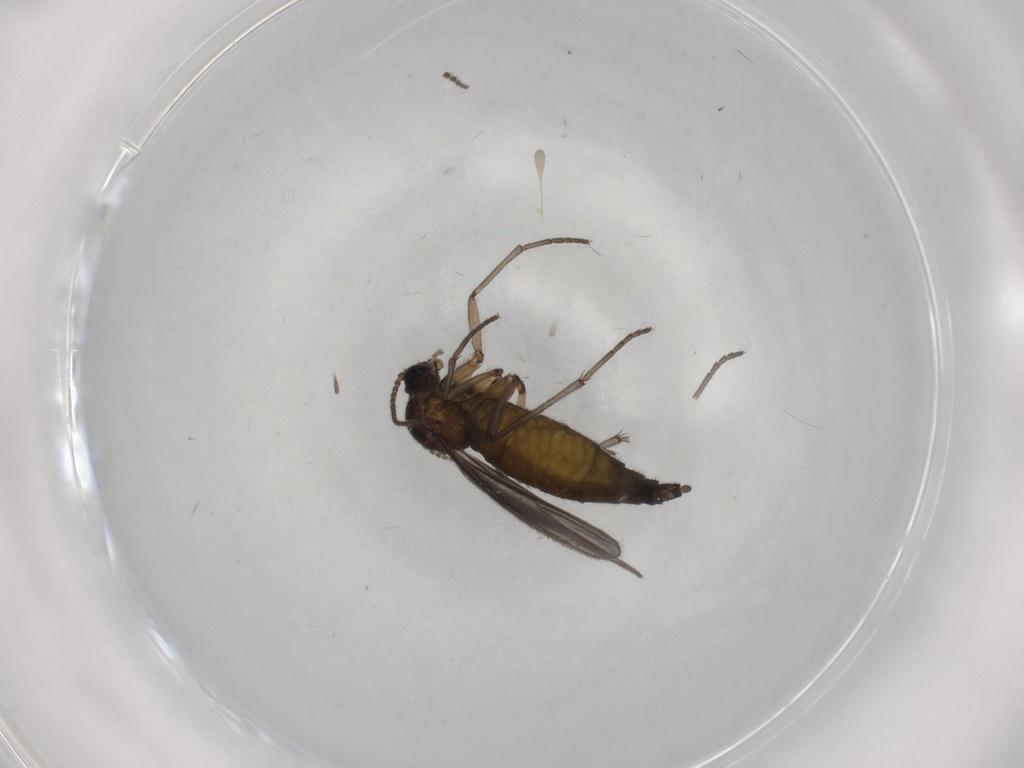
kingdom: Animalia
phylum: Arthropoda
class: Insecta
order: Diptera
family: Sciaridae
